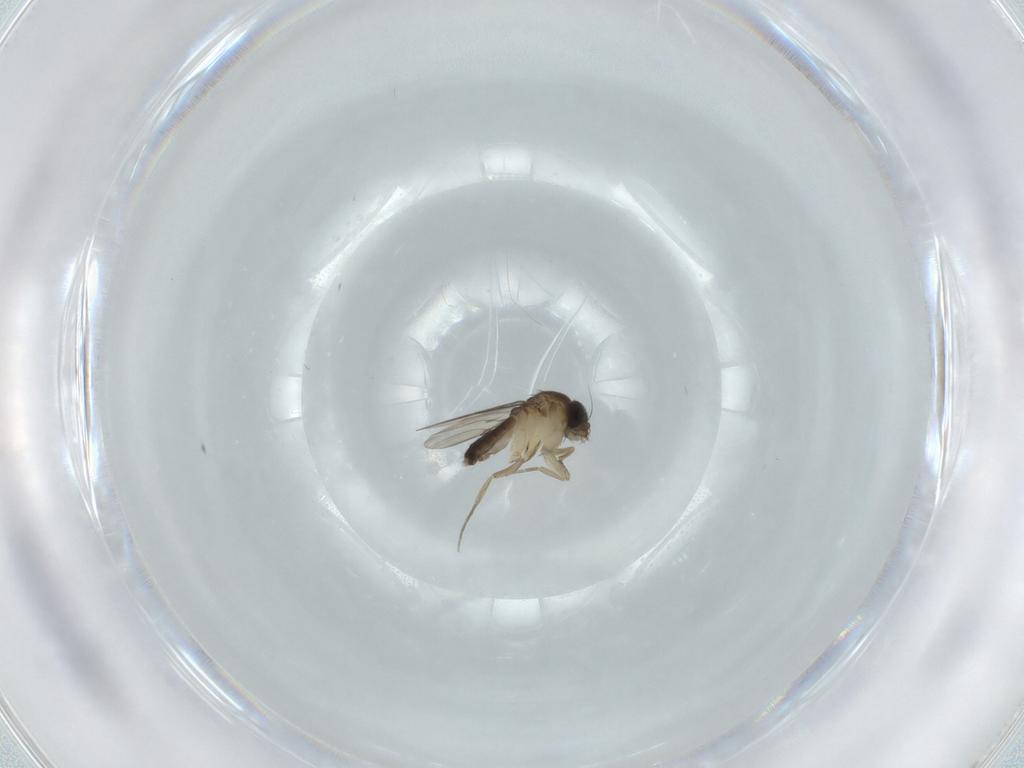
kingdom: Animalia
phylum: Arthropoda
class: Insecta
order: Diptera
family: Phoridae
